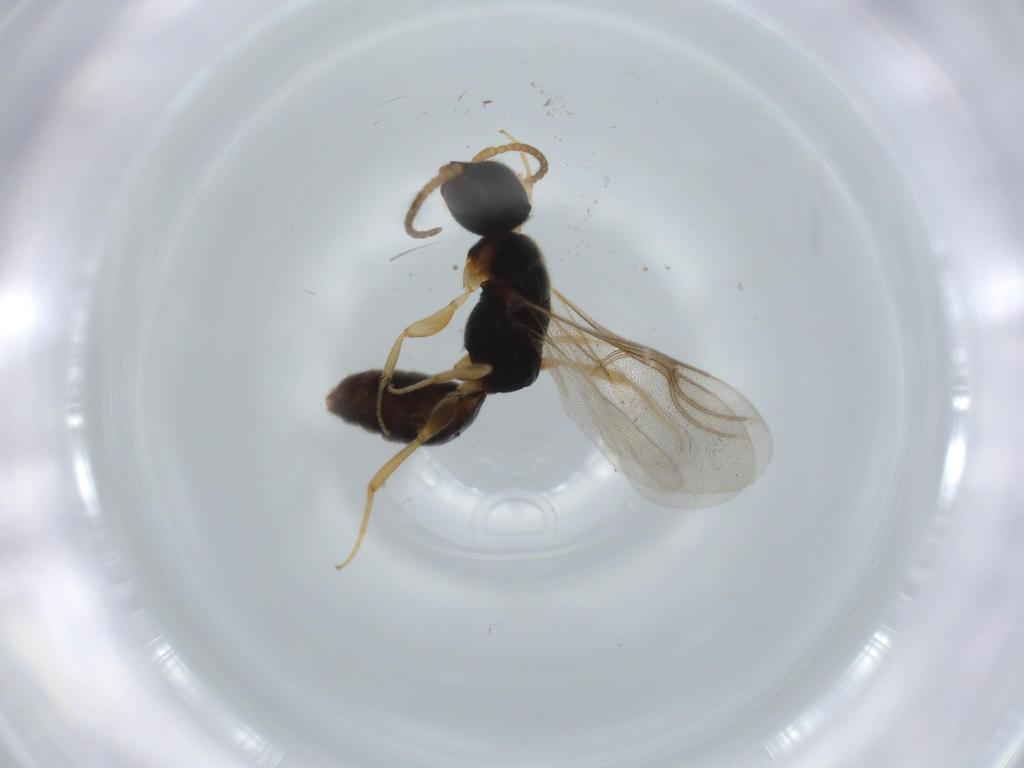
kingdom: Animalia
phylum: Arthropoda
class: Insecta
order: Hymenoptera
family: Bethylidae
